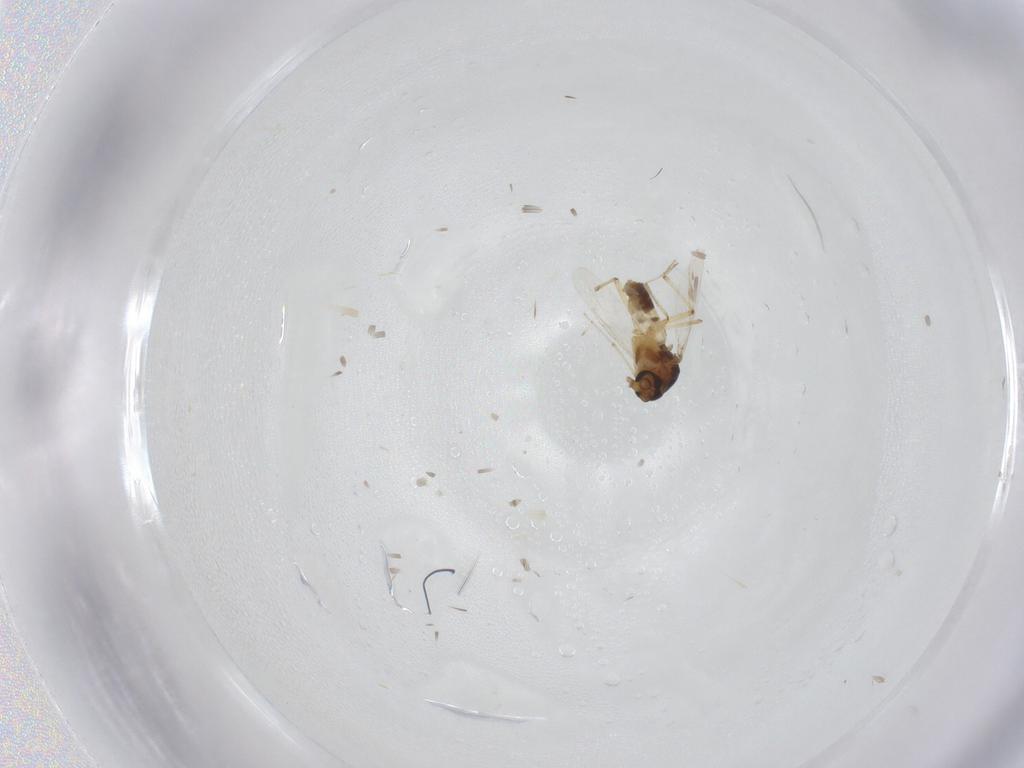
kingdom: Animalia
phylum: Arthropoda
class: Insecta
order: Diptera
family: Ceratopogonidae
